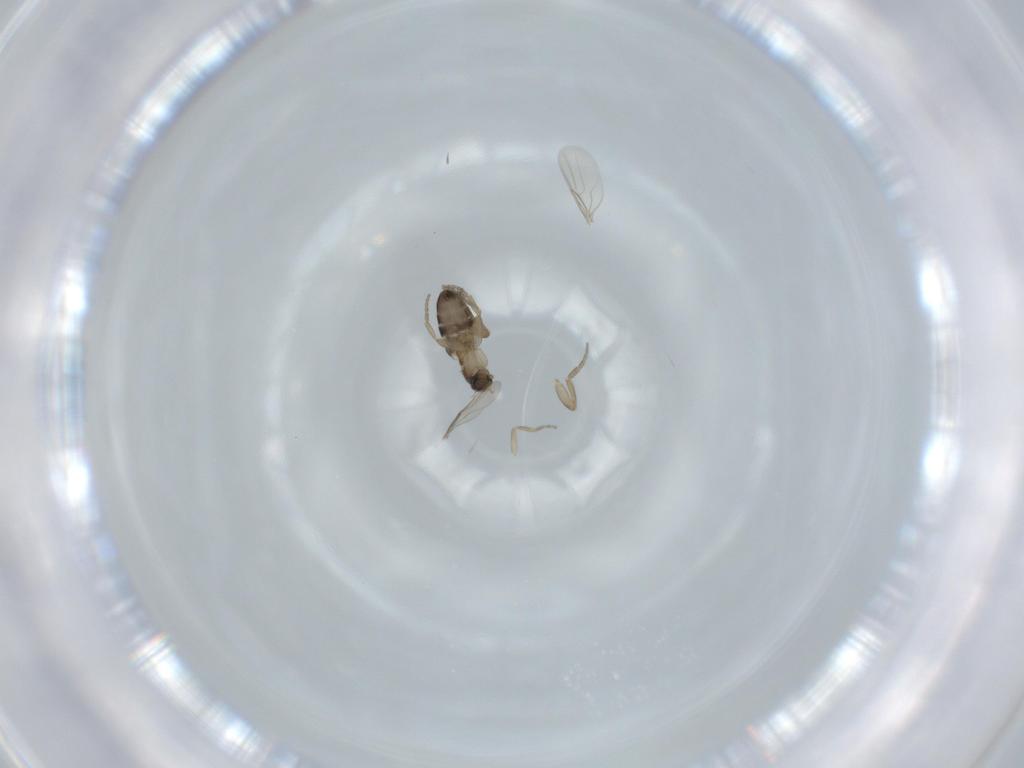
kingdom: Animalia
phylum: Arthropoda
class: Insecta
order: Diptera
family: Phoridae
